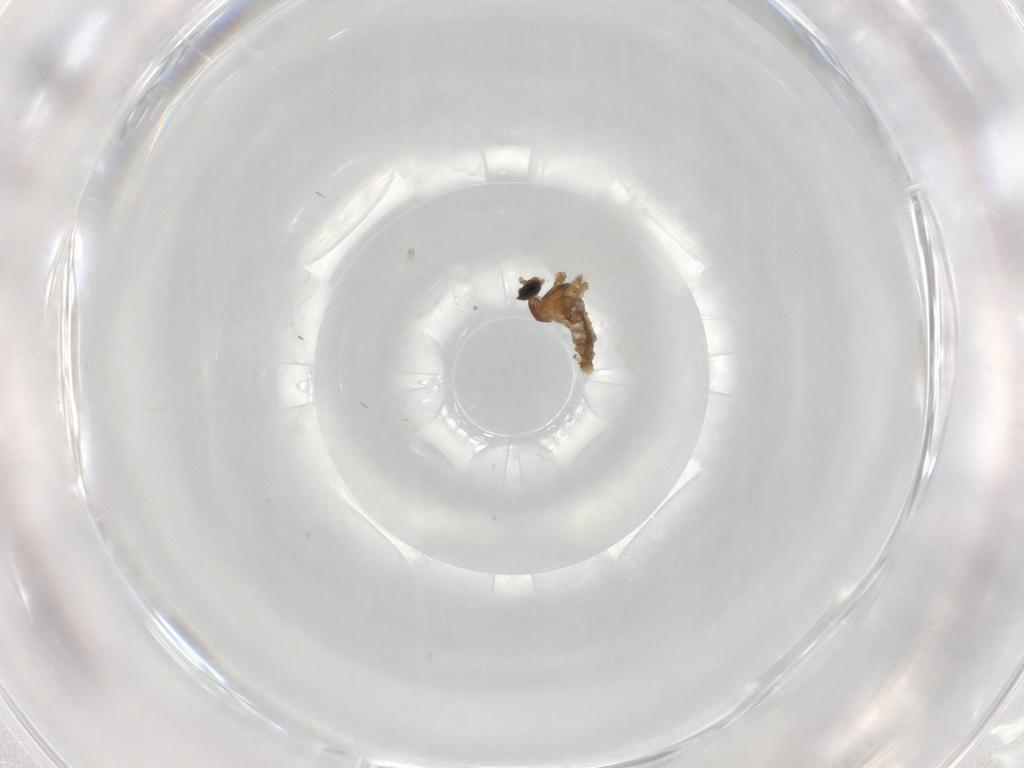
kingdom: Animalia
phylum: Arthropoda
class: Insecta
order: Diptera
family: Cecidomyiidae
